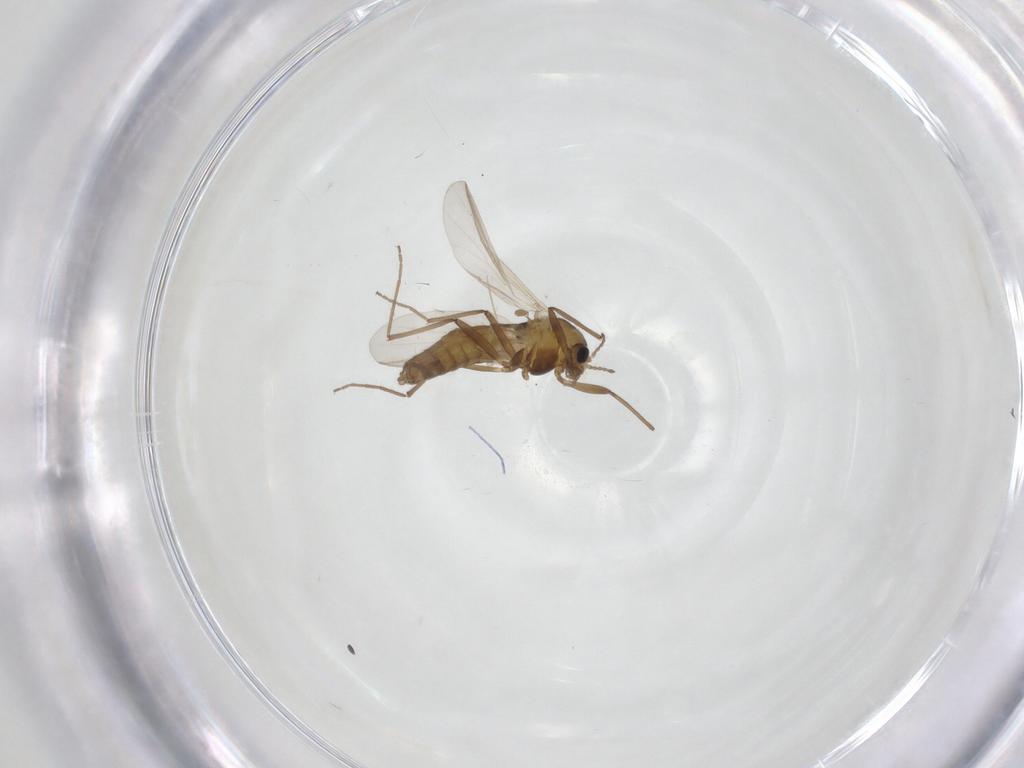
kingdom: Animalia
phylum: Arthropoda
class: Insecta
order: Diptera
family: Chironomidae
